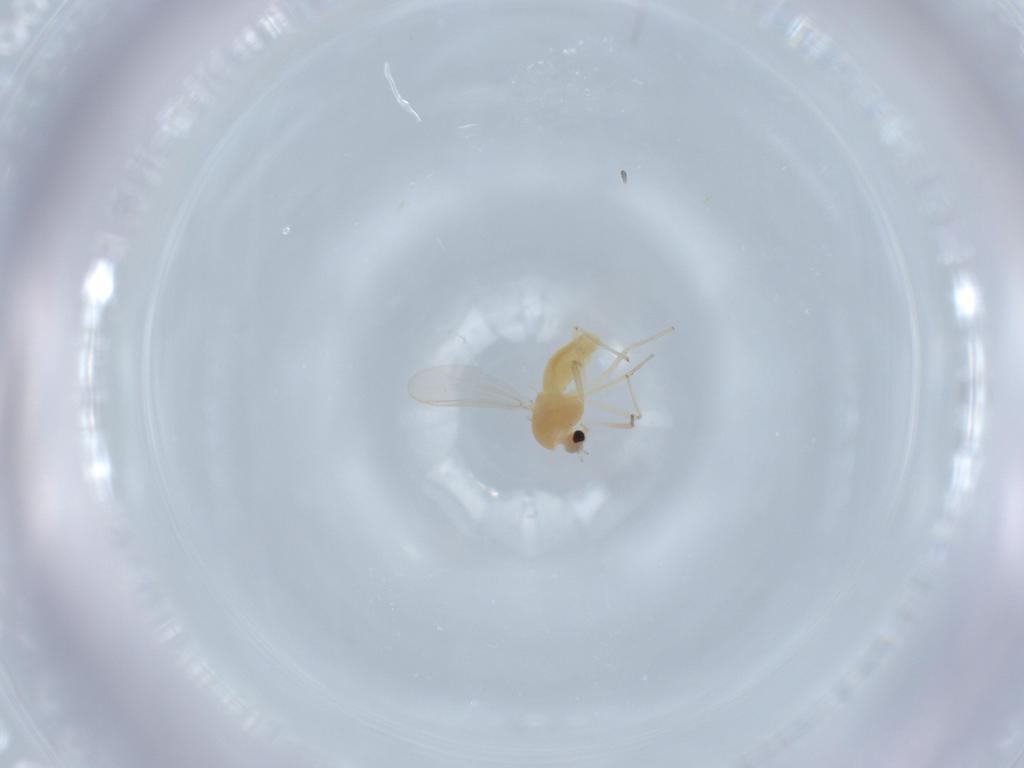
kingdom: Animalia
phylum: Arthropoda
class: Insecta
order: Diptera
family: Chironomidae
